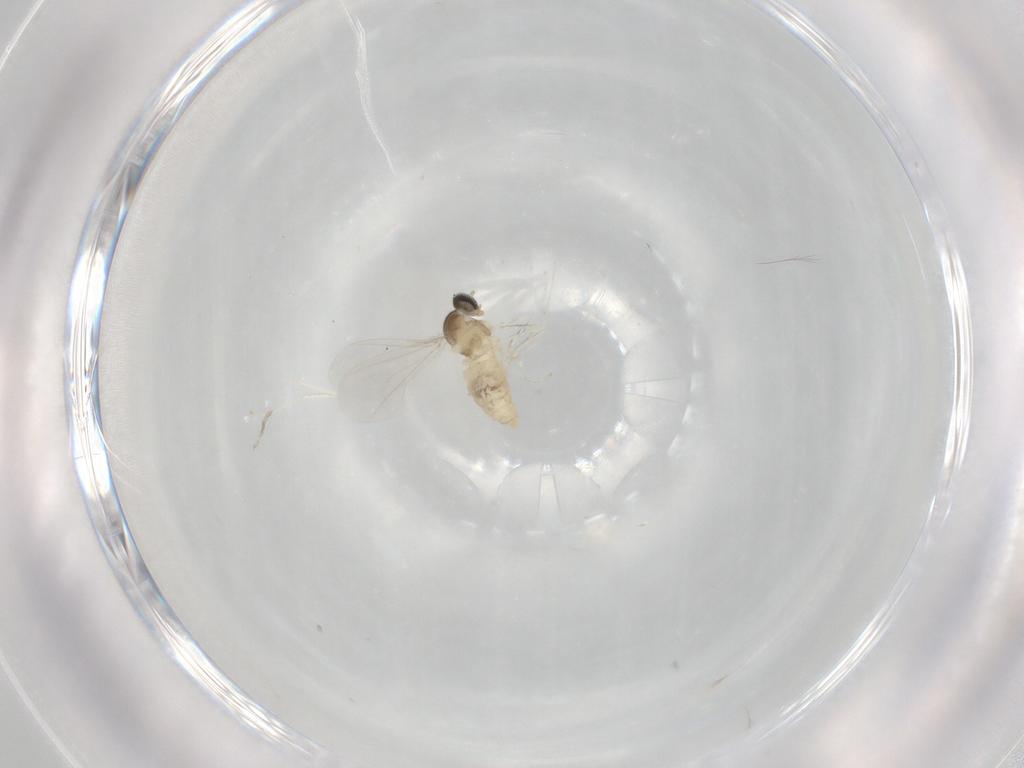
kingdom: Animalia
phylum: Arthropoda
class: Insecta
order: Diptera
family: Cecidomyiidae
